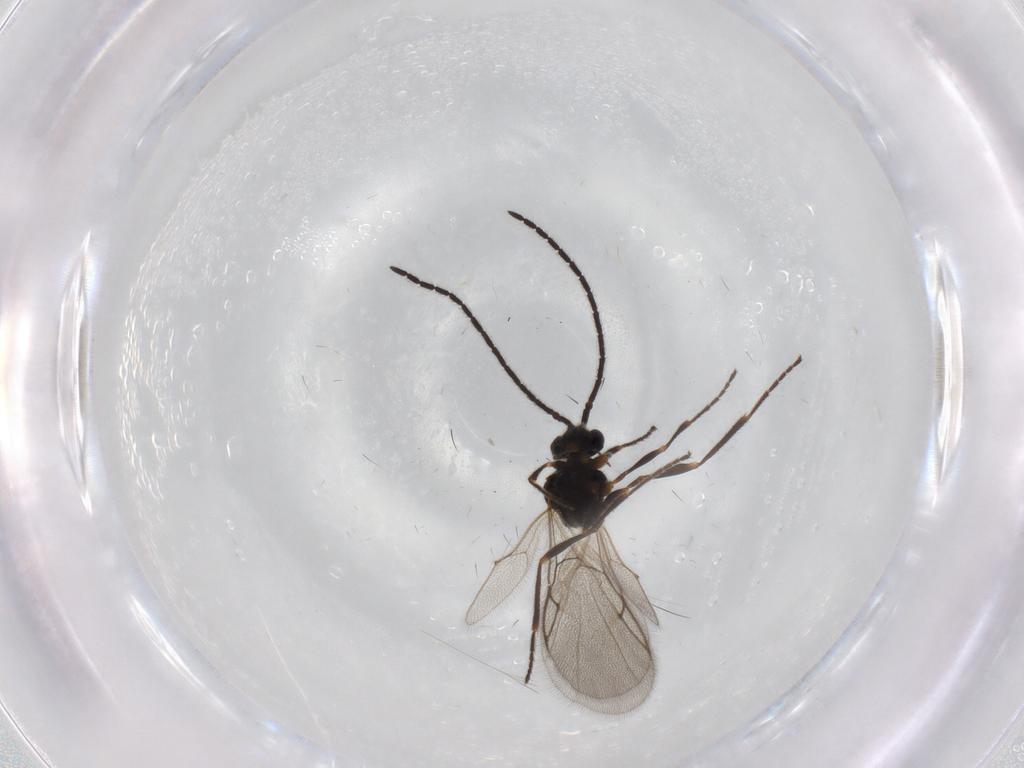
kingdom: Animalia
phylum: Arthropoda
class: Insecta
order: Hymenoptera
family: Diapriidae
